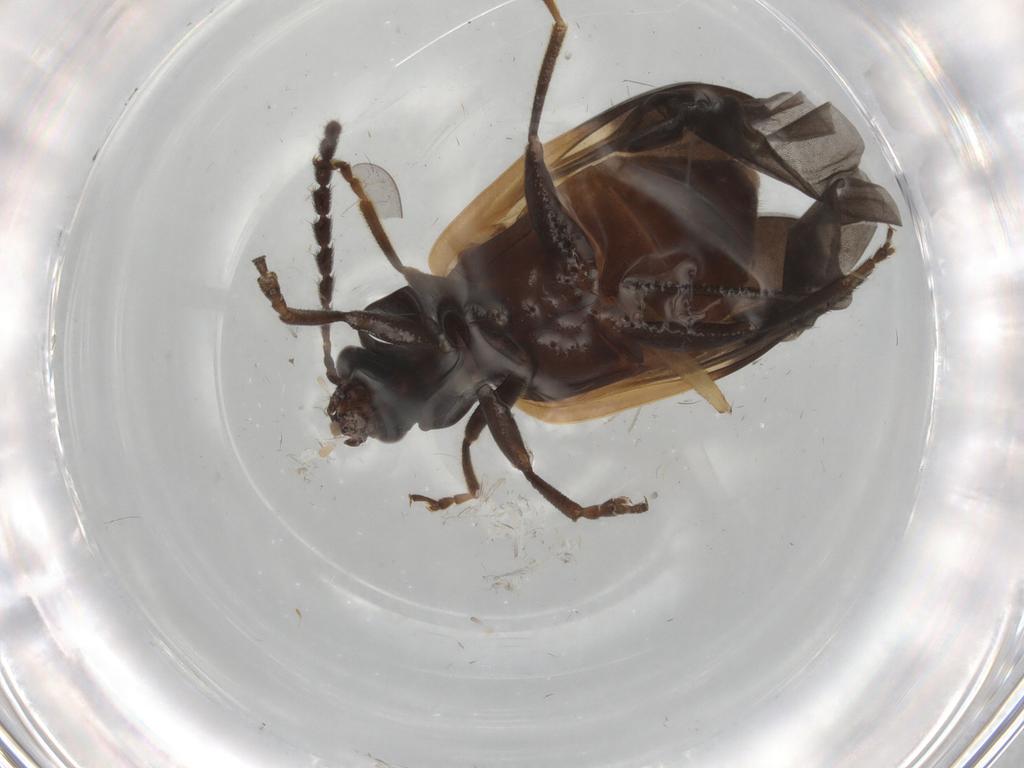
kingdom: Animalia
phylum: Arthropoda
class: Insecta
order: Coleoptera
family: Chrysomelidae
